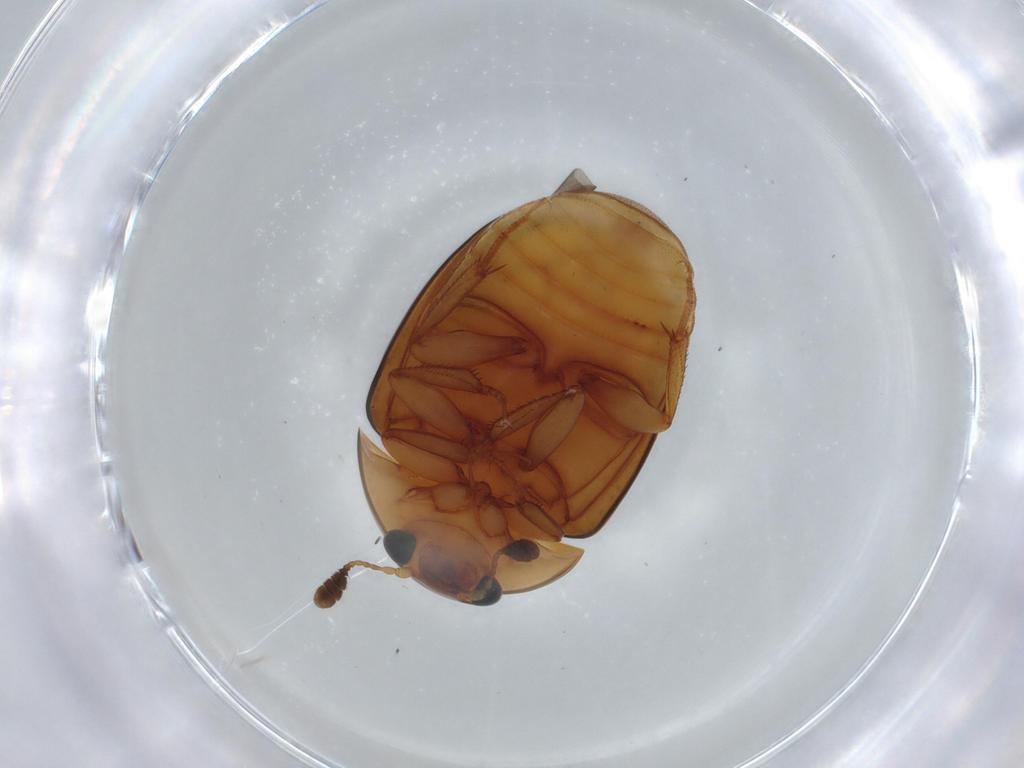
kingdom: Animalia
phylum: Arthropoda
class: Insecta
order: Coleoptera
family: Nitidulidae
